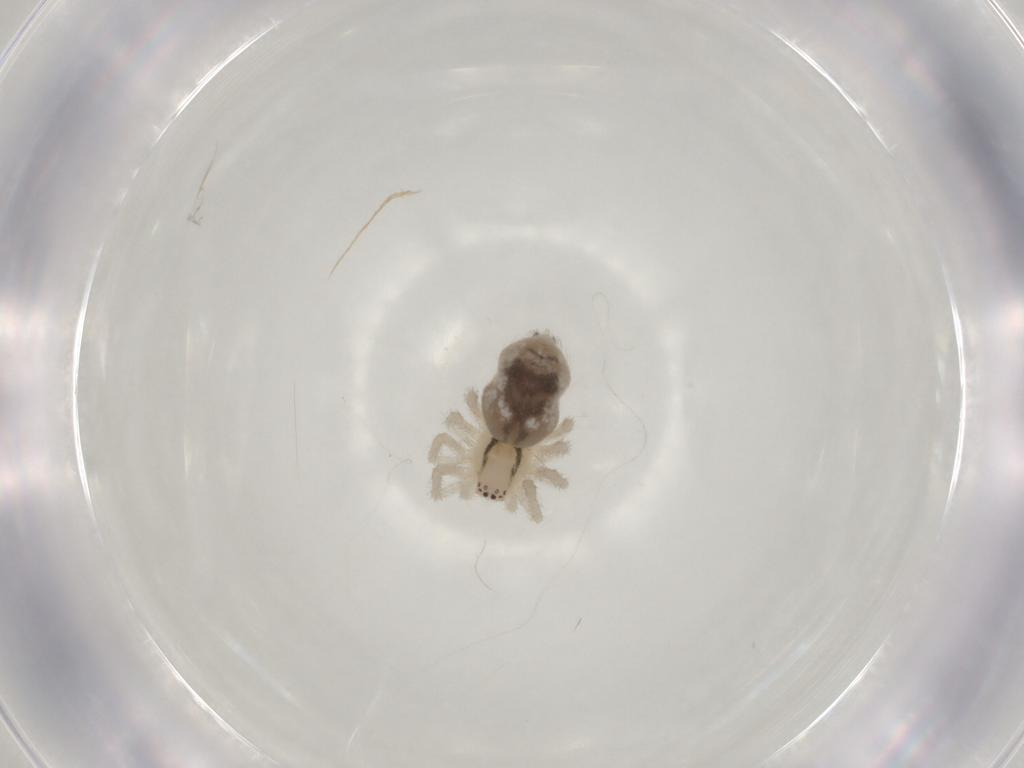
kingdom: Animalia
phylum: Arthropoda
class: Arachnida
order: Araneae
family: Dictynidae
